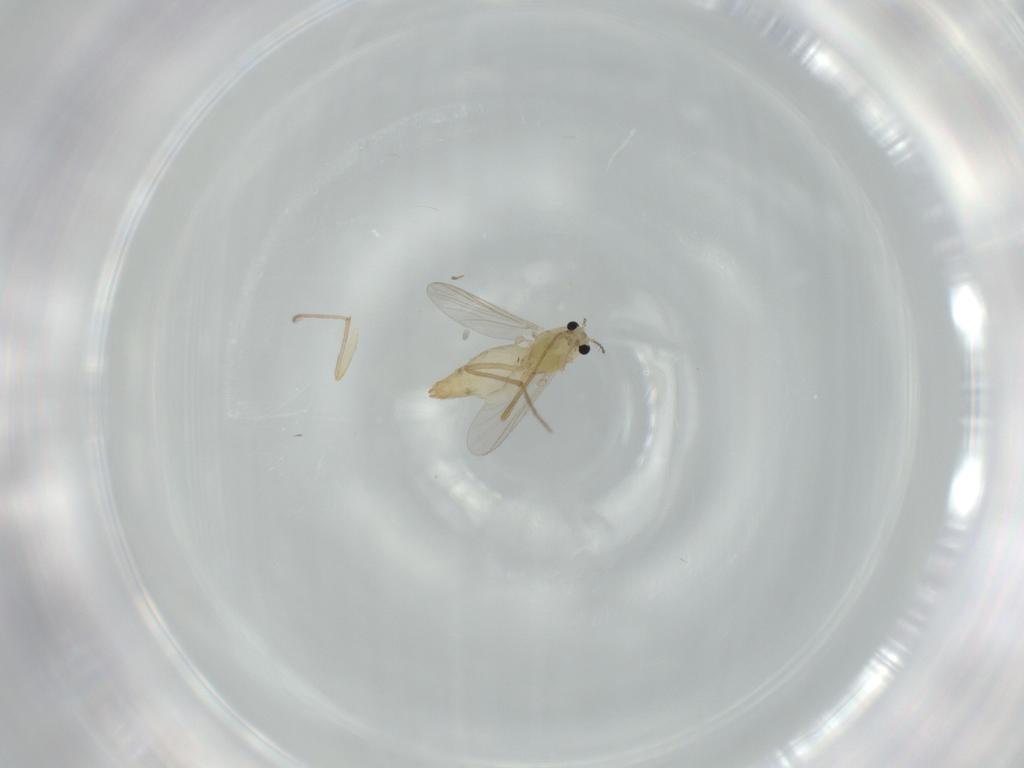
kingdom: Animalia
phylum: Arthropoda
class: Insecta
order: Diptera
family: Chironomidae
